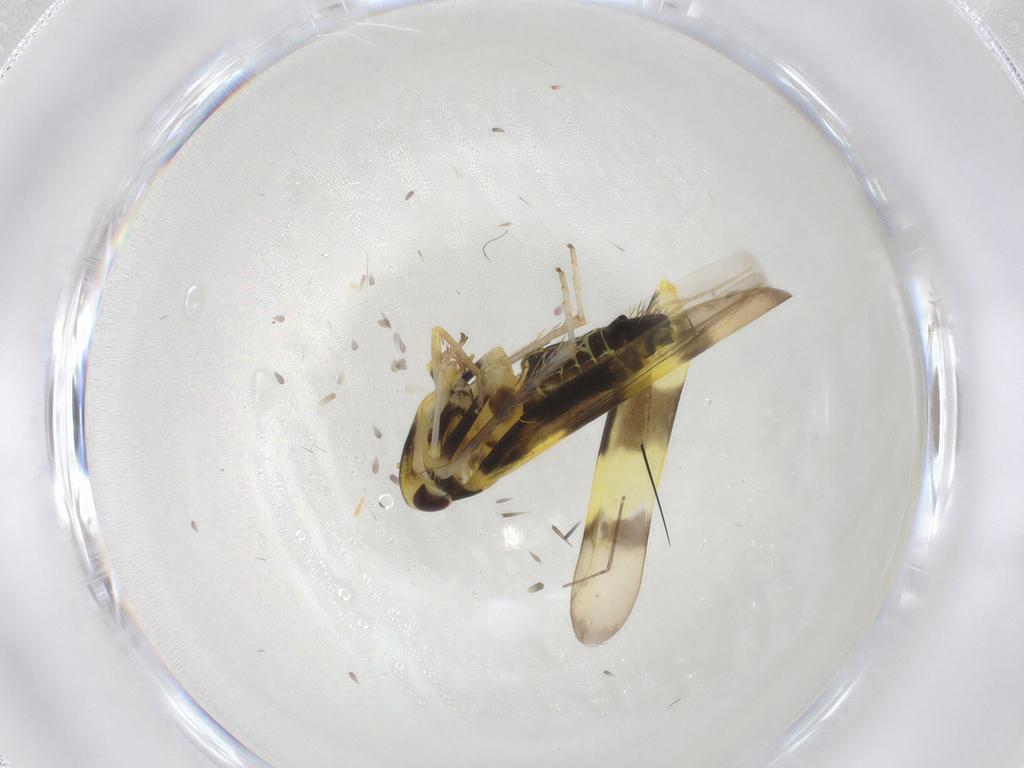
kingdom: Animalia
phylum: Arthropoda
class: Insecta
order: Hemiptera
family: Cicadellidae
